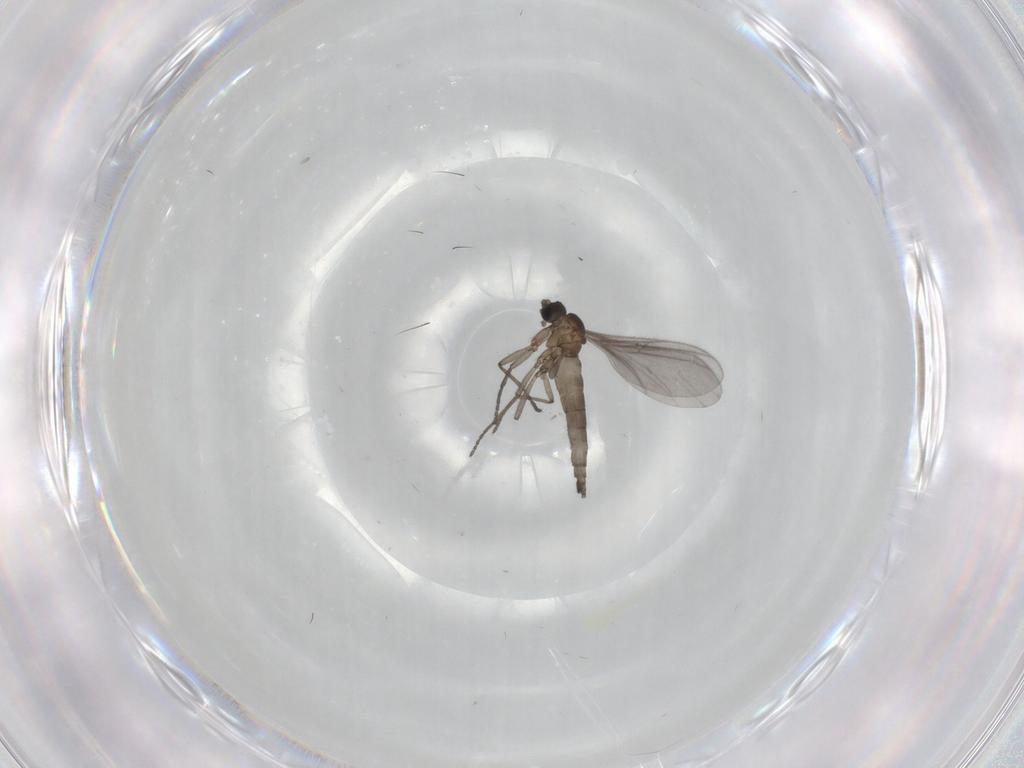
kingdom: Animalia
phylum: Arthropoda
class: Insecta
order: Diptera
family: Sciaridae
